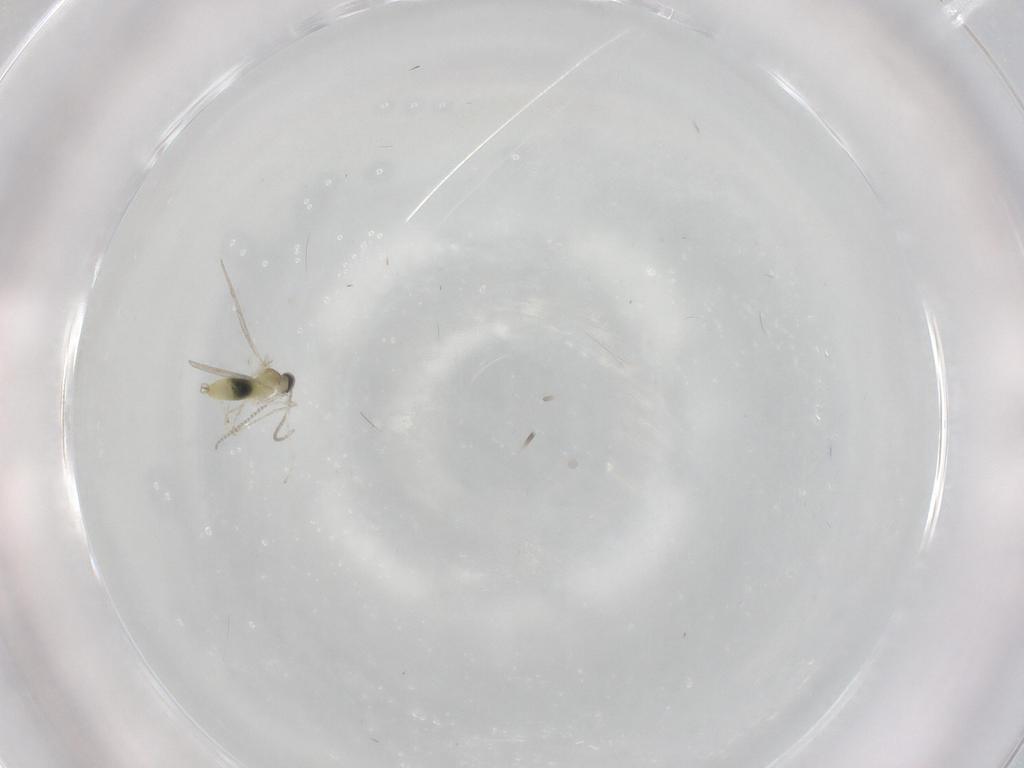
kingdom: Animalia
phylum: Arthropoda
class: Insecta
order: Diptera
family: Cecidomyiidae
